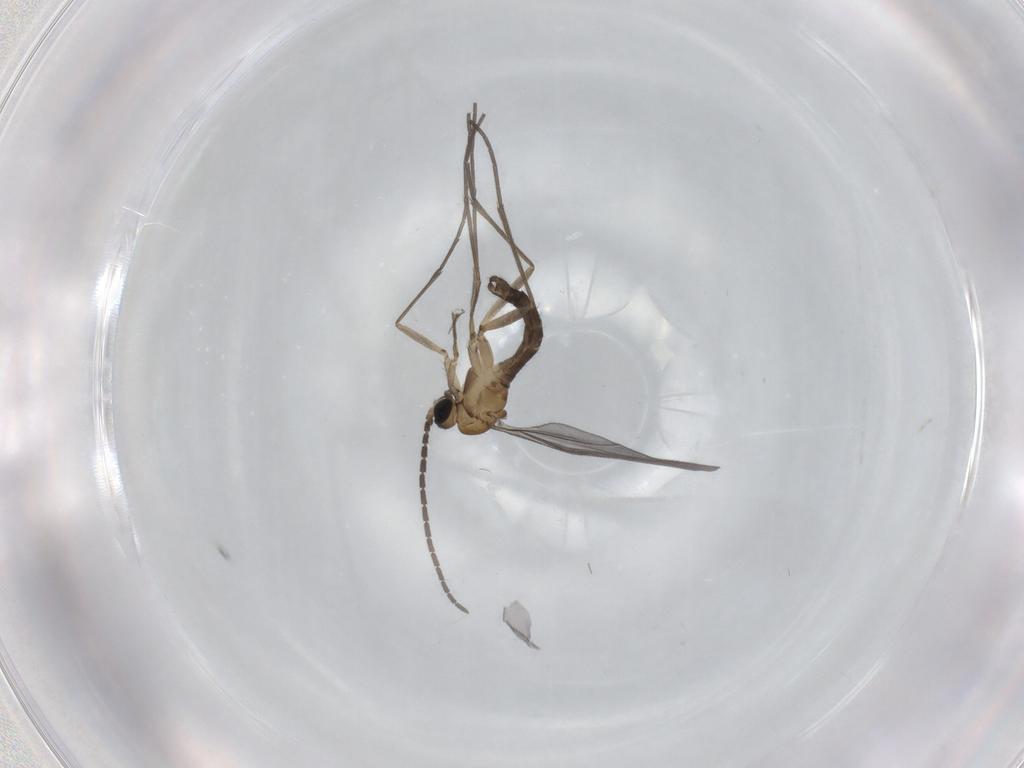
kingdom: Animalia
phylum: Arthropoda
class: Insecta
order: Diptera
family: Sciaridae
